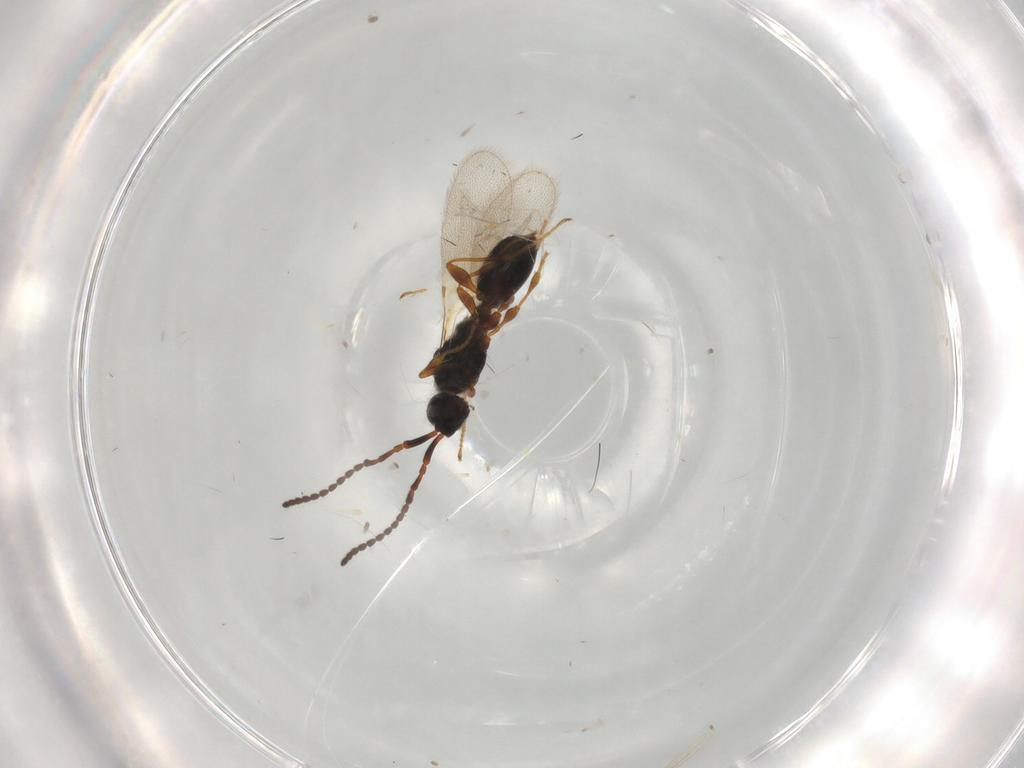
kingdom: Animalia
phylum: Arthropoda
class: Insecta
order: Hymenoptera
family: Diapriidae
